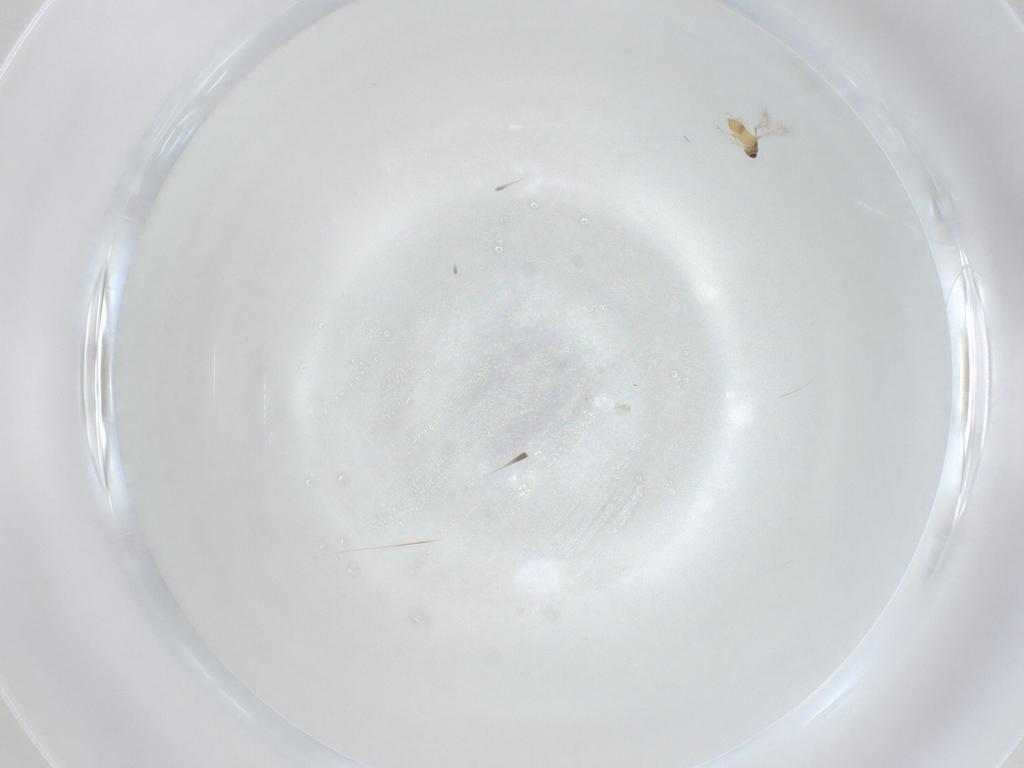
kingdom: Animalia
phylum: Arthropoda
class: Insecta
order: Hymenoptera
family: Mymaridae
